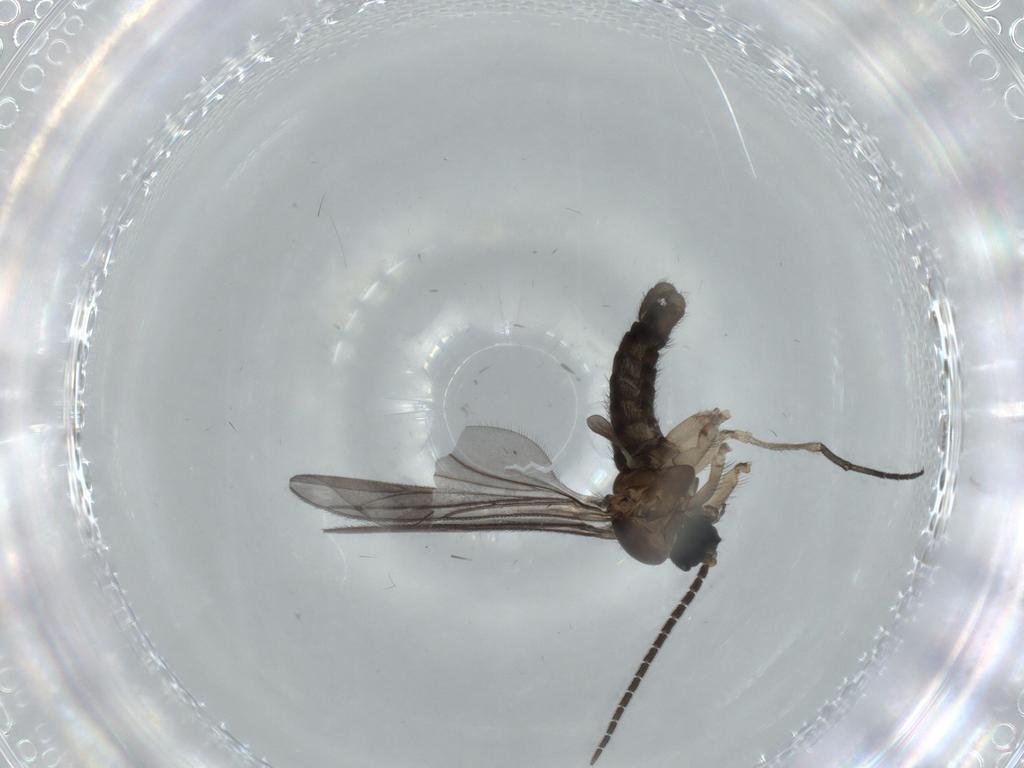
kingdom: Animalia
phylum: Arthropoda
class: Insecta
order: Diptera
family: Sciaridae
